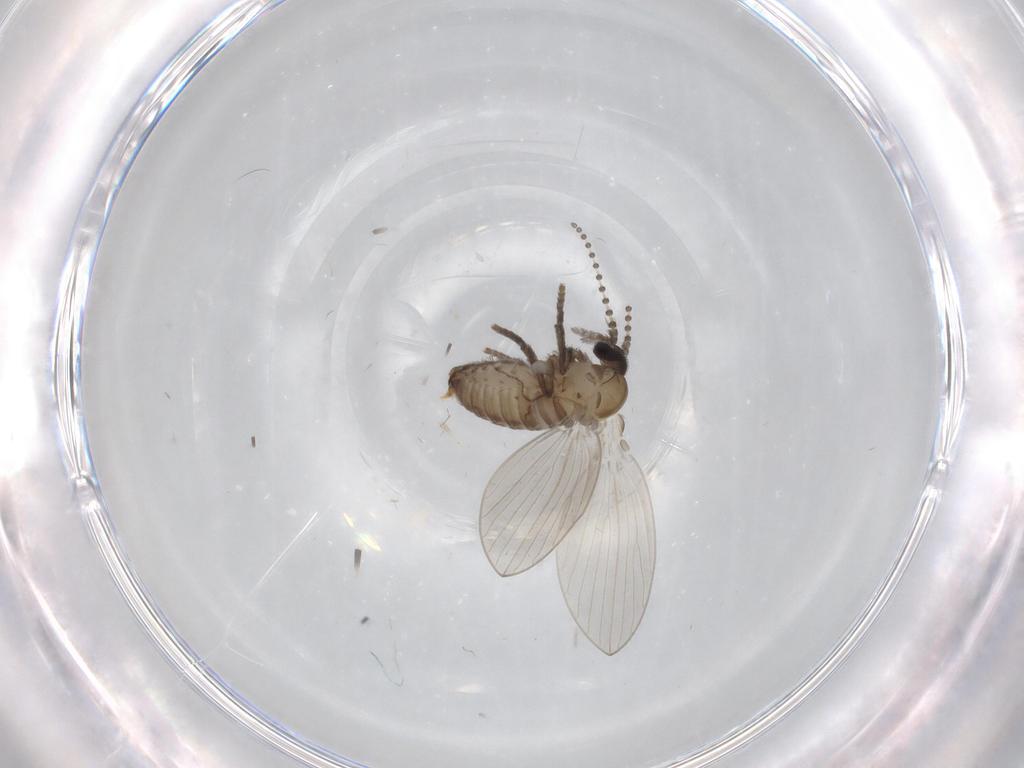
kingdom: Animalia
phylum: Arthropoda
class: Insecta
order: Diptera
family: Psychodidae
